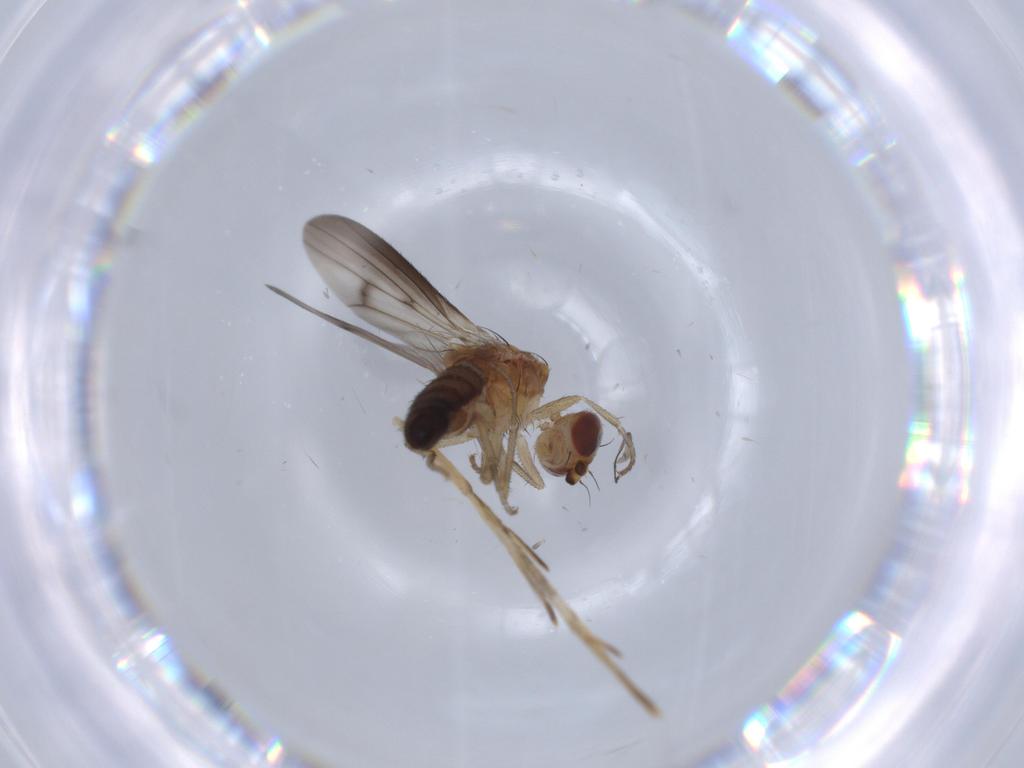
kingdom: Animalia
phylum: Arthropoda
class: Insecta
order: Diptera
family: Heleomyzidae
